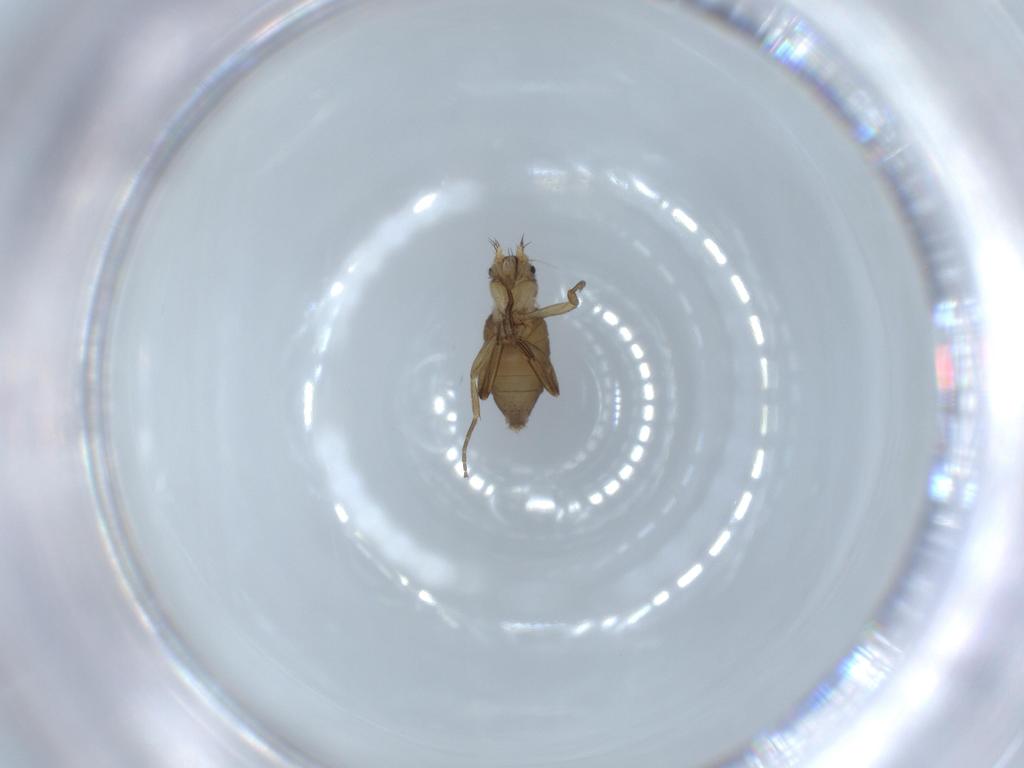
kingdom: Animalia
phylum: Arthropoda
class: Insecta
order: Diptera
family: Phoridae
